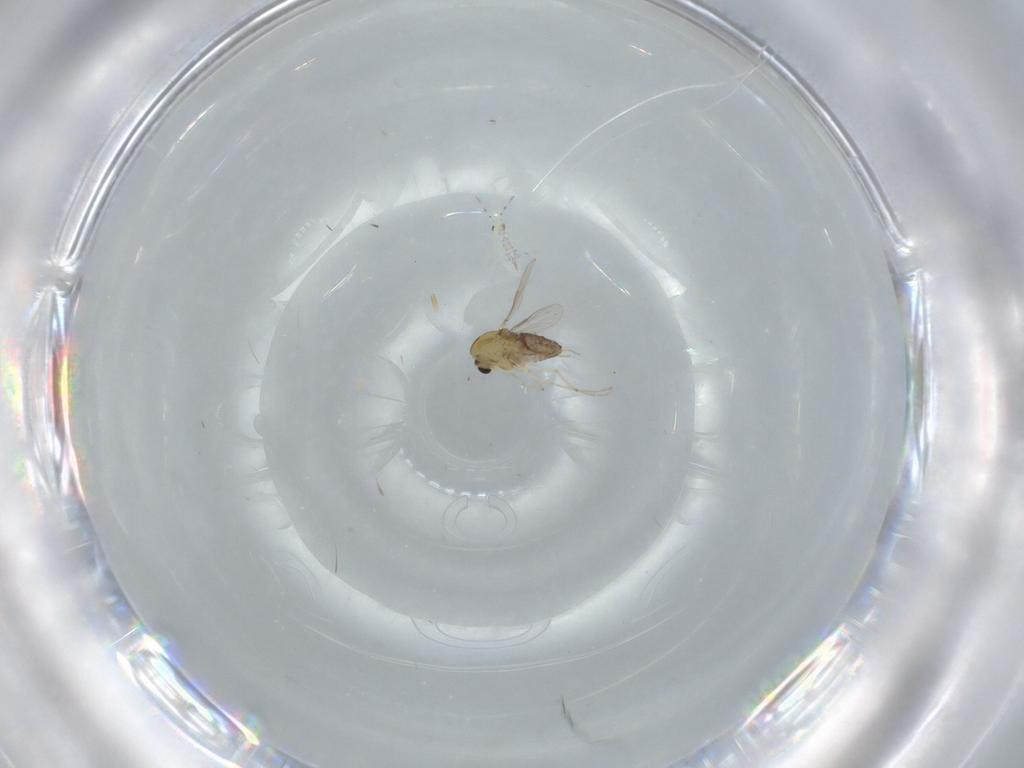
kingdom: Animalia
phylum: Arthropoda
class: Insecta
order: Diptera
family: Chironomidae
